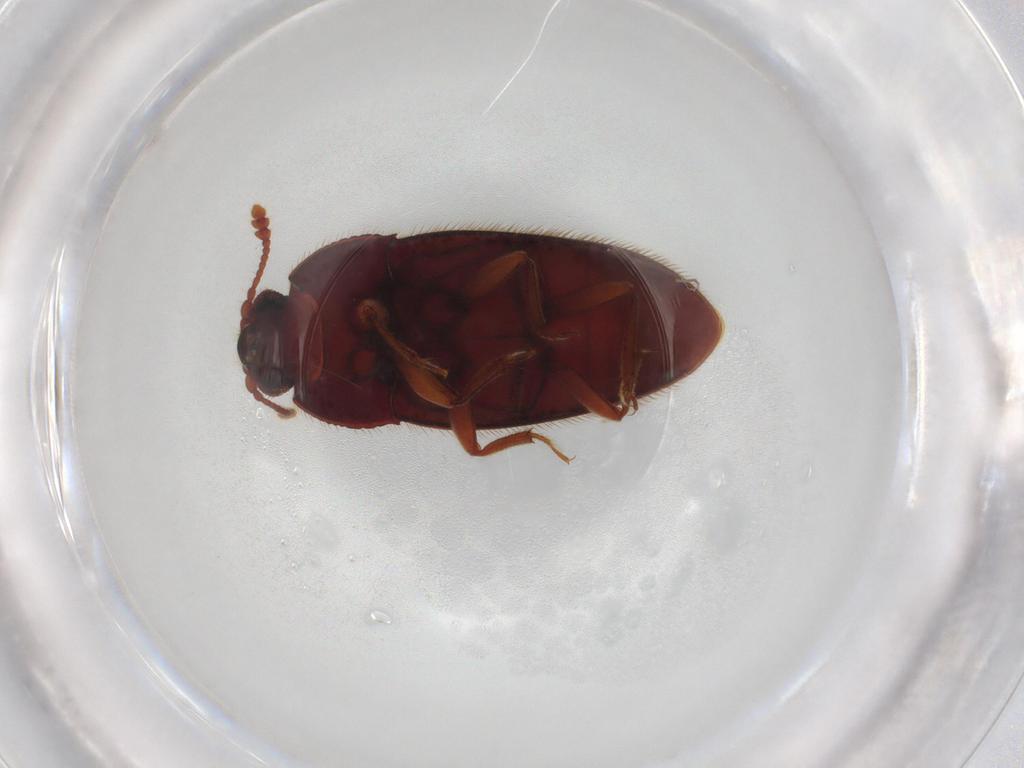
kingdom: Animalia
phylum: Arthropoda
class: Insecta
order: Coleoptera
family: Biphyllidae
